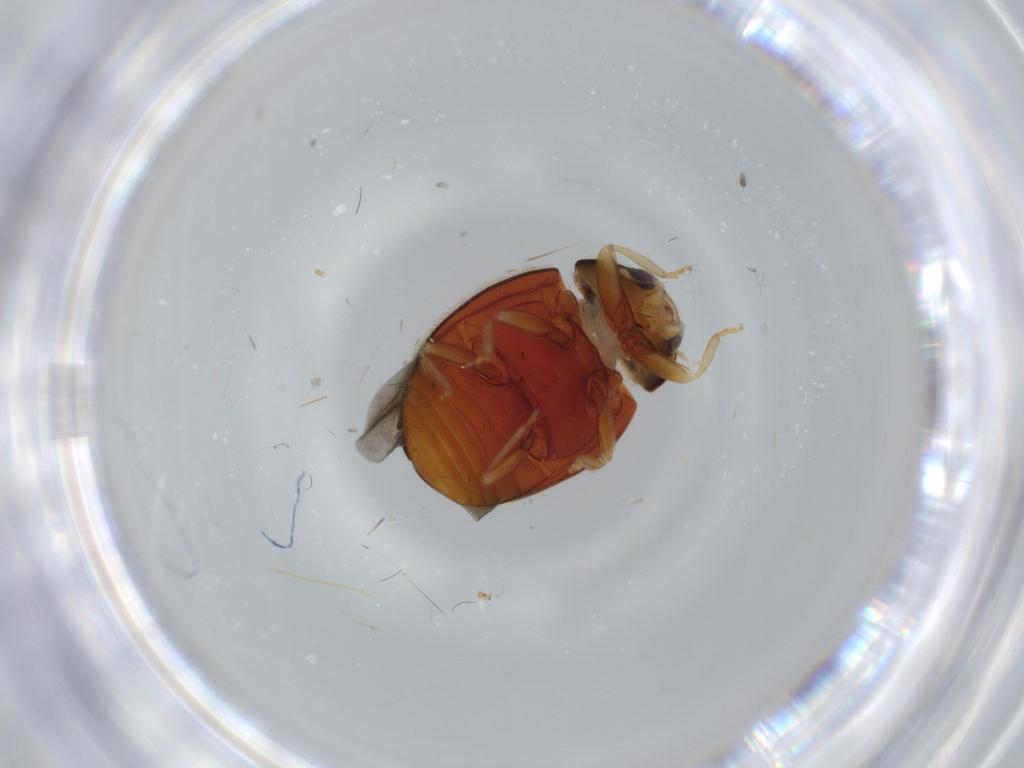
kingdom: Animalia
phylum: Arthropoda
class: Insecta
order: Coleoptera
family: Coccinellidae
